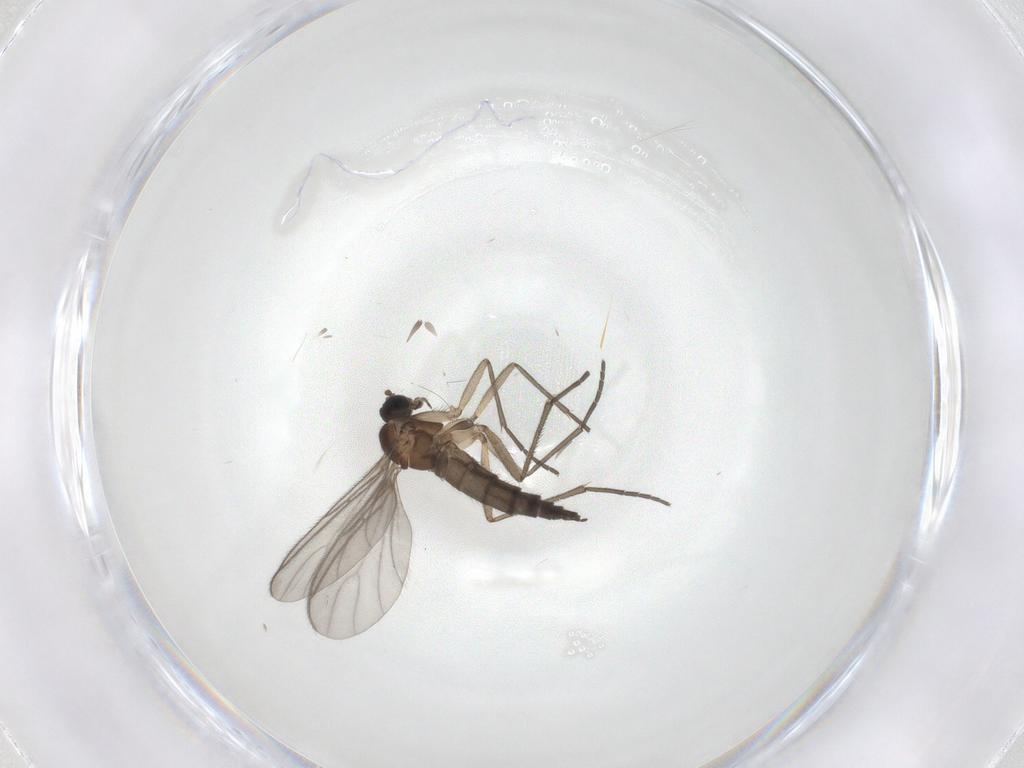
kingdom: Animalia
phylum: Arthropoda
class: Insecta
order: Diptera
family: Sciaridae
